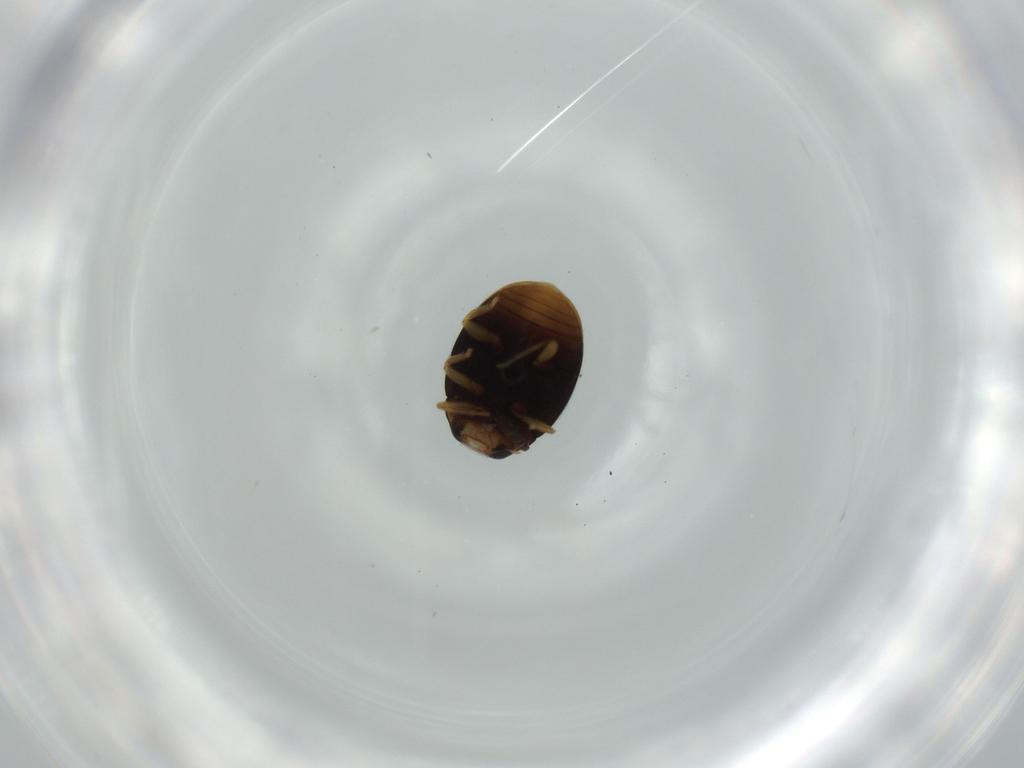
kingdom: Animalia
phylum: Arthropoda
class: Insecta
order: Coleoptera
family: Coccinellidae
